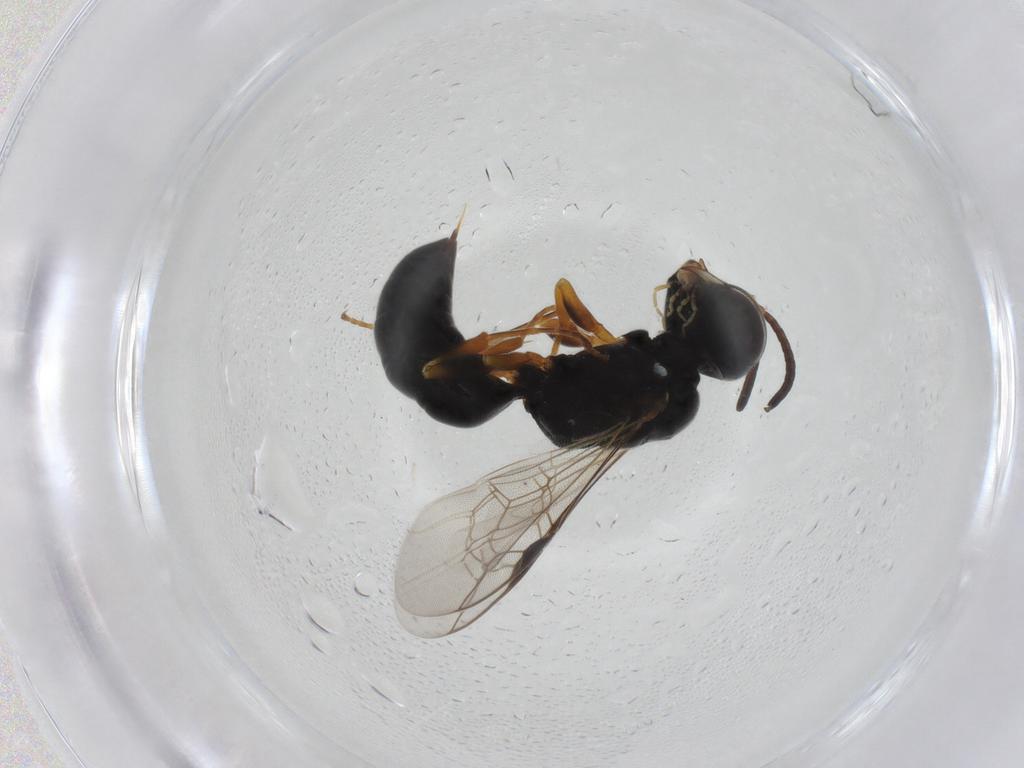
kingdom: Animalia
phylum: Arthropoda
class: Insecta
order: Hymenoptera
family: Pemphredonidae
